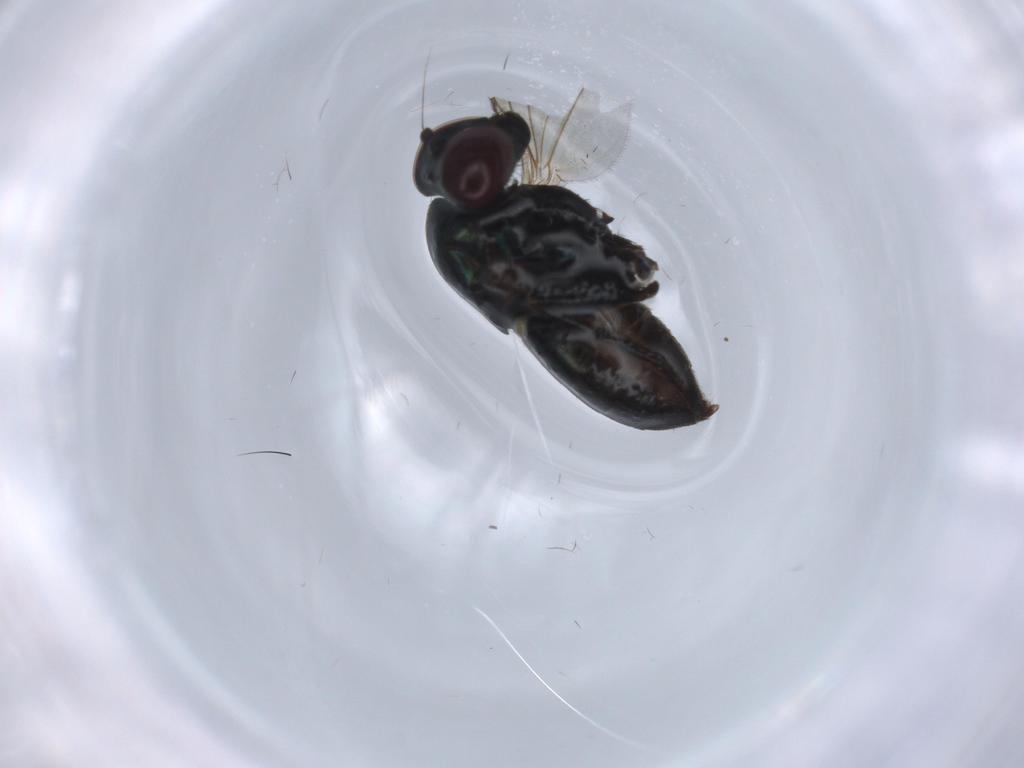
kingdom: Animalia
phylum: Arthropoda
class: Insecta
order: Diptera
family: Dolichopodidae
